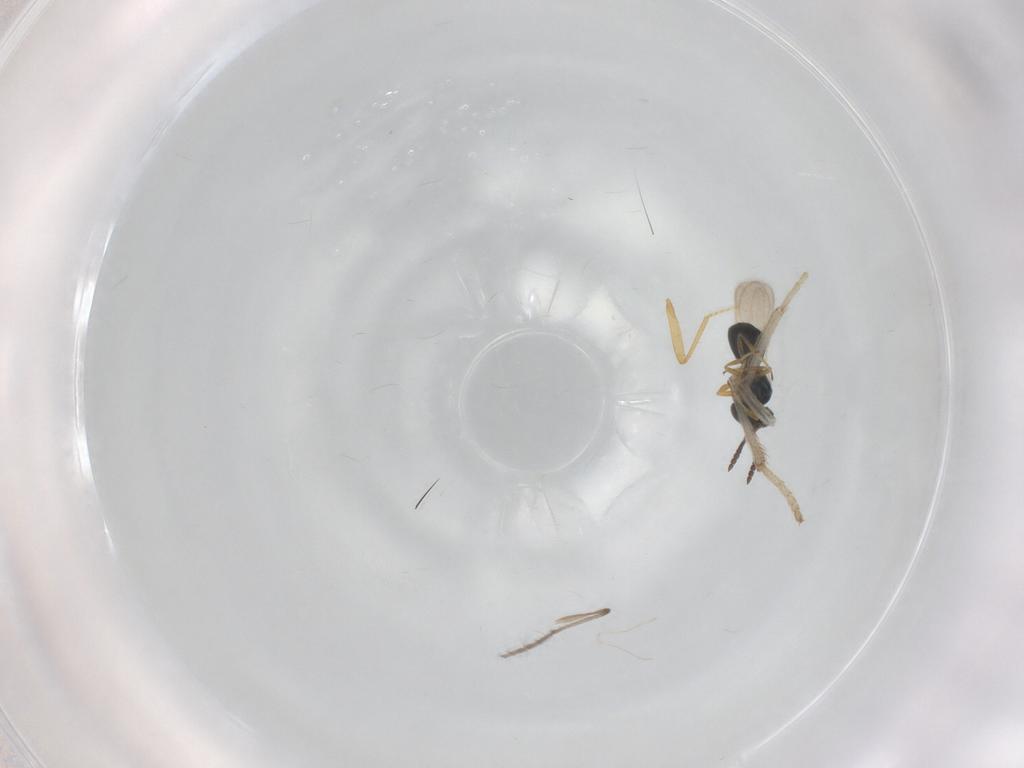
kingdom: Animalia
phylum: Arthropoda
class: Insecta
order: Hymenoptera
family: Scelionidae
